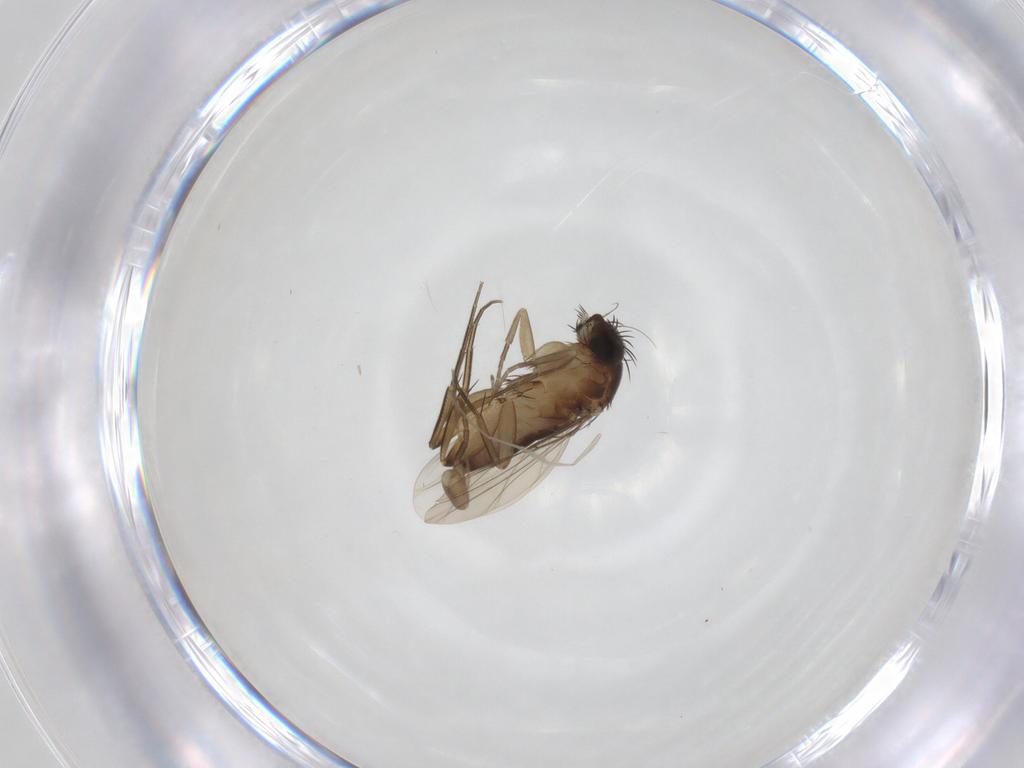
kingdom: Animalia
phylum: Arthropoda
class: Insecta
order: Diptera
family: Phoridae
